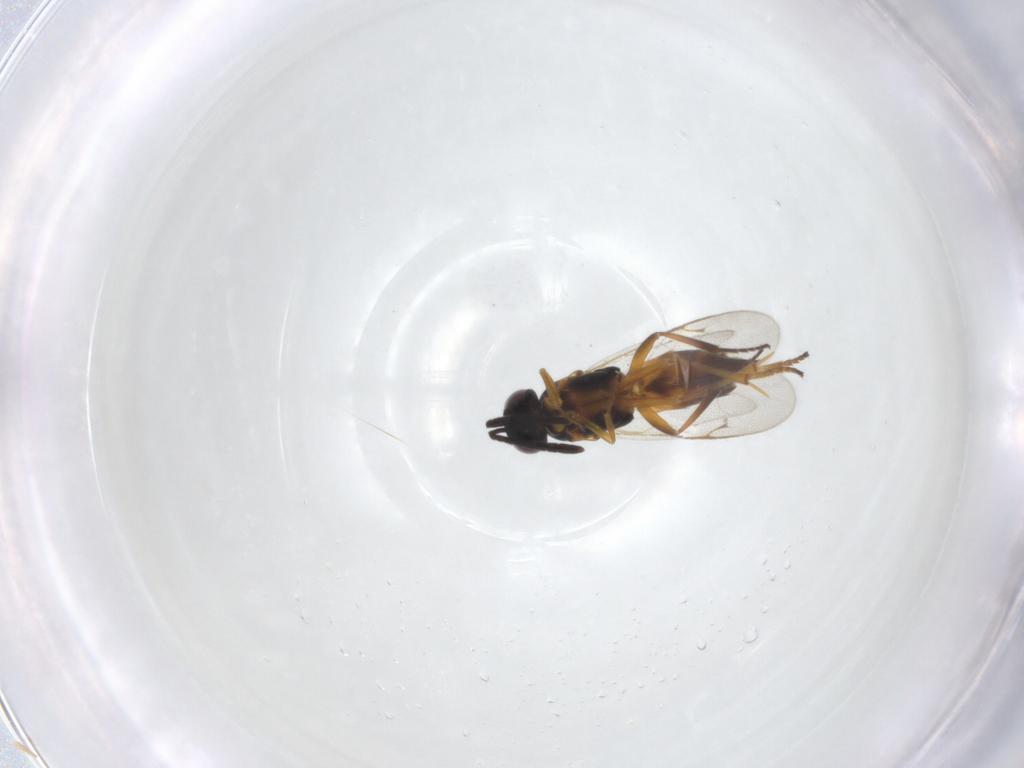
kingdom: Animalia
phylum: Arthropoda
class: Insecta
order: Hymenoptera
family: Encyrtidae
